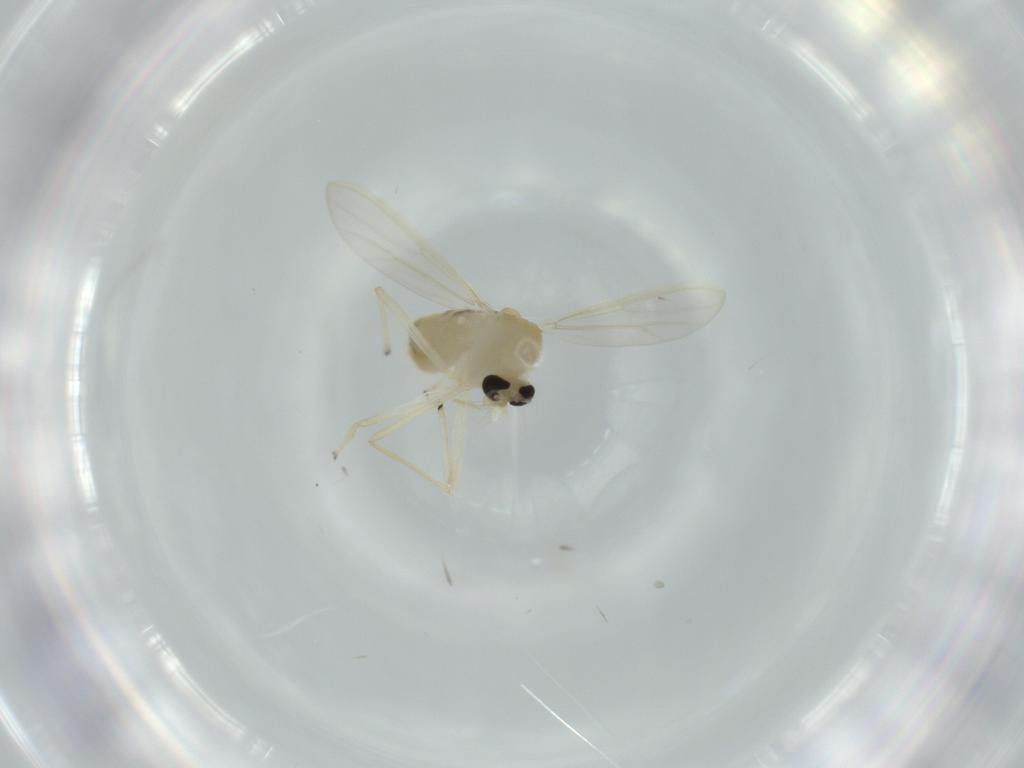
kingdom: Animalia
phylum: Arthropoda
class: Insecta
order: Diptera
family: Chironomidae
